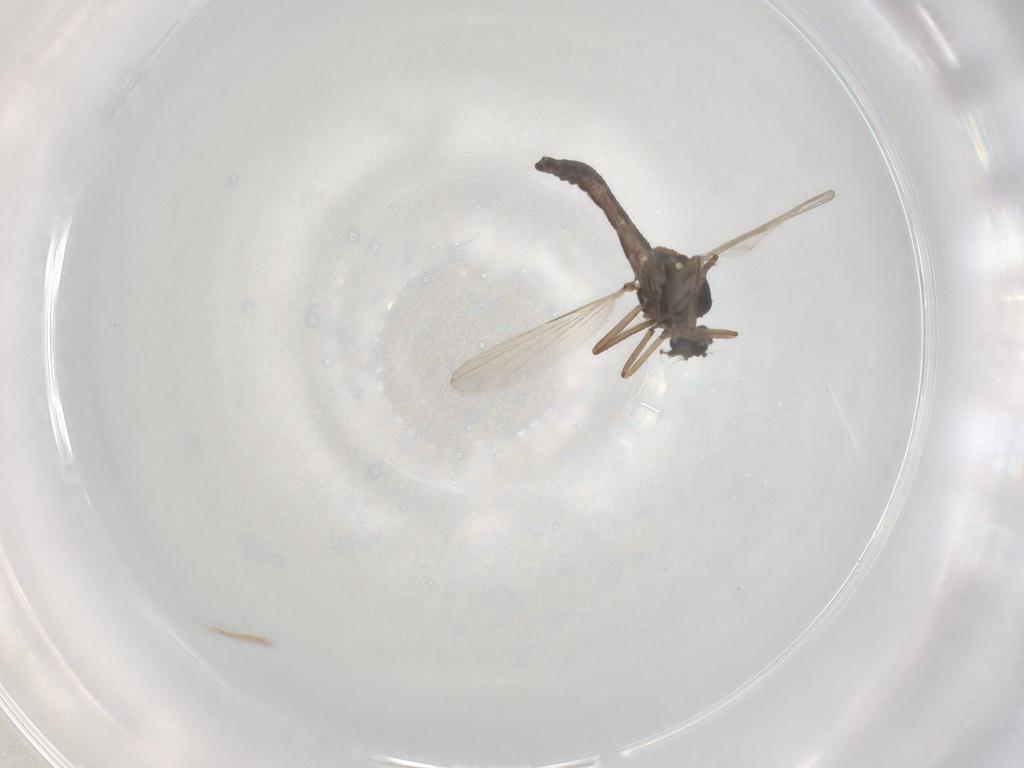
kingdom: Animalia
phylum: Arthropoda
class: Insecta
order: Diptera
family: Ceratopogonidae
